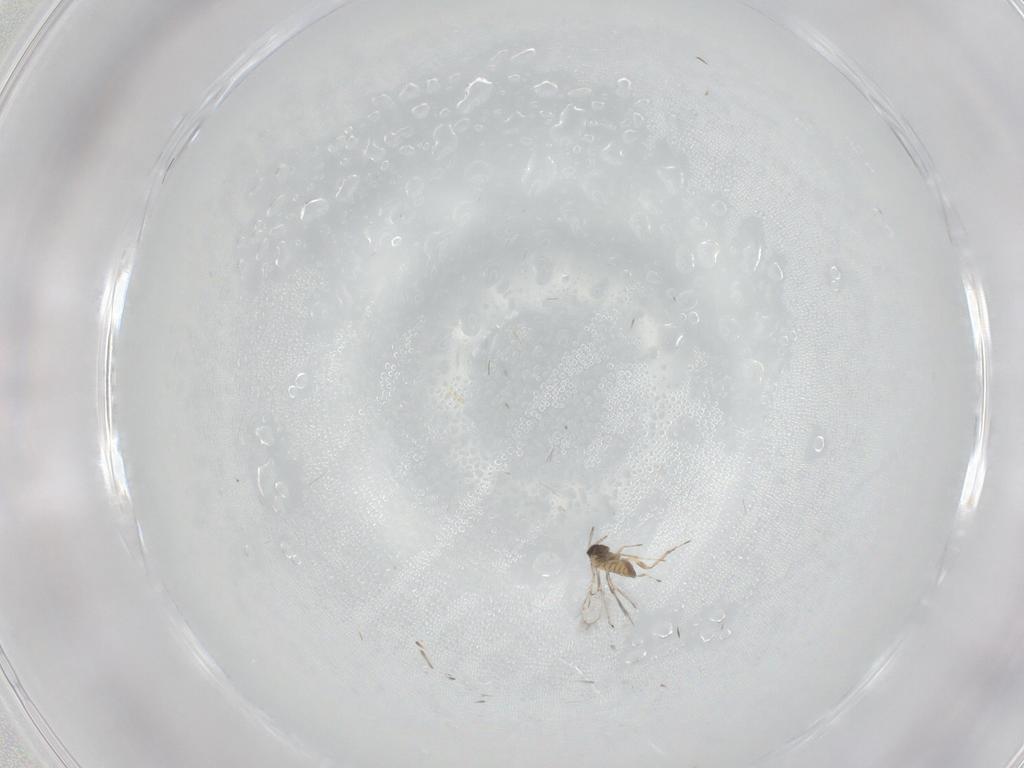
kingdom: Animalia
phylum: Arthropoda
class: Insecta
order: Hymenoptera
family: Trichogrammatidae
